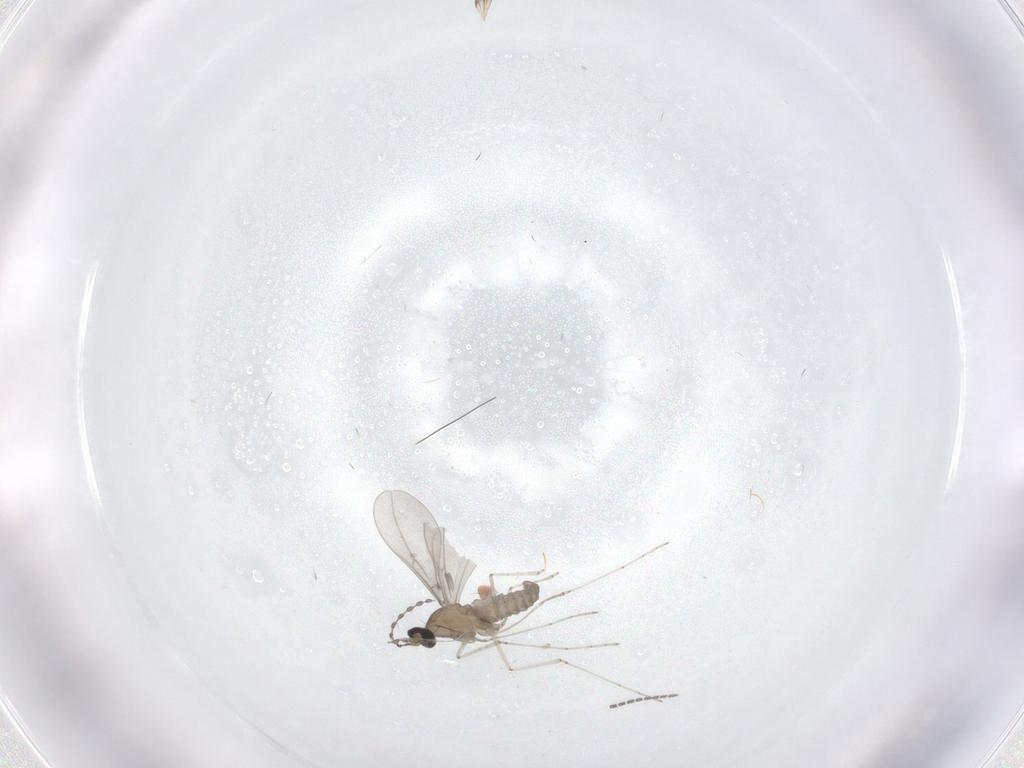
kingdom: Animalia
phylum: Arthropoda
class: Insecta
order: Diptera
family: Cecidomyiidae
